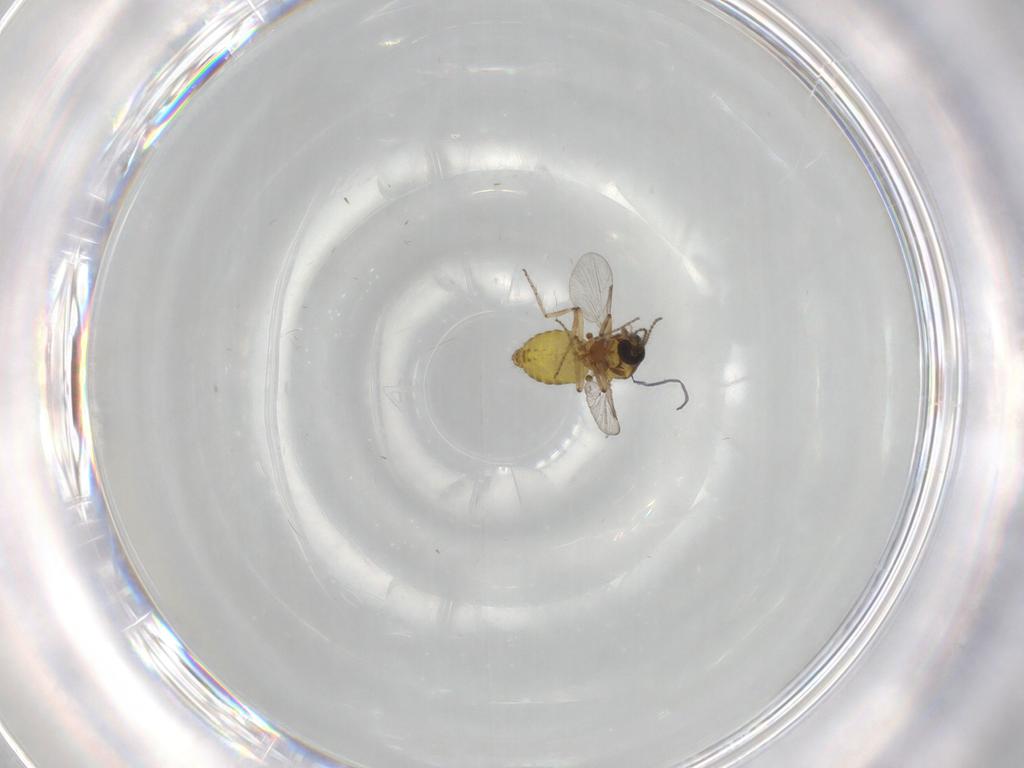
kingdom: Animalia
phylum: Arthropoda
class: Insecta
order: Diptera
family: Ceratopogonidae
